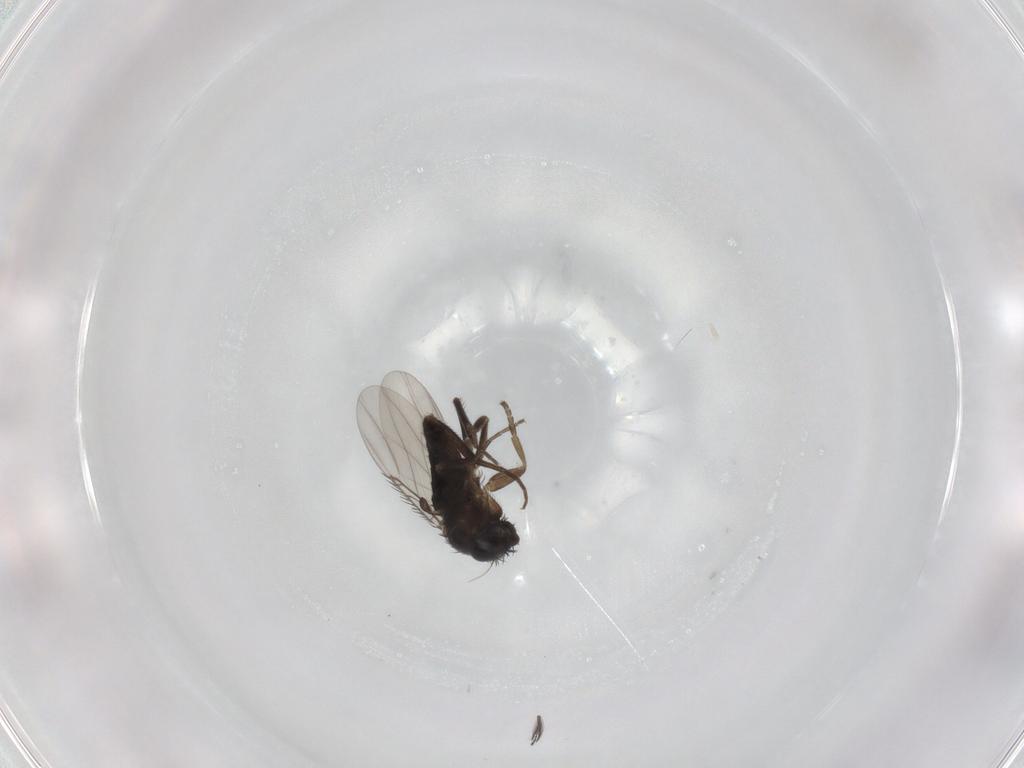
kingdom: Animalia
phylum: Arthropoda
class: Insecta
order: Diptera
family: Phoridae
